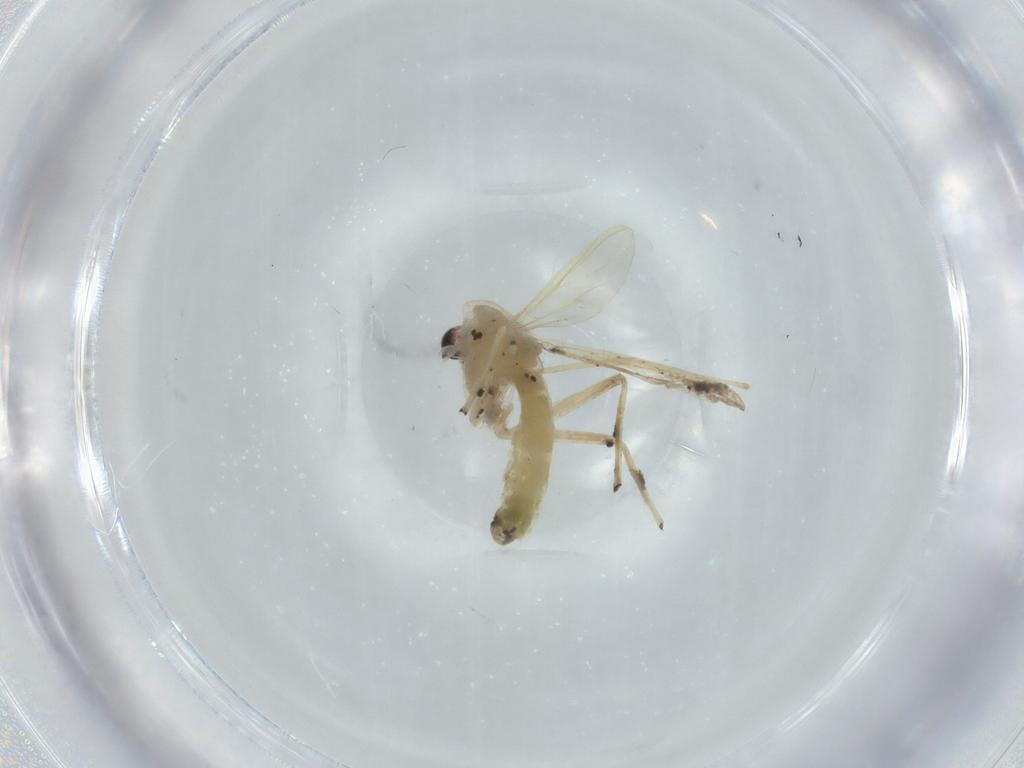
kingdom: Animalia
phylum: Arthropoda
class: Insecta
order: Diptera
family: Chironomidae
